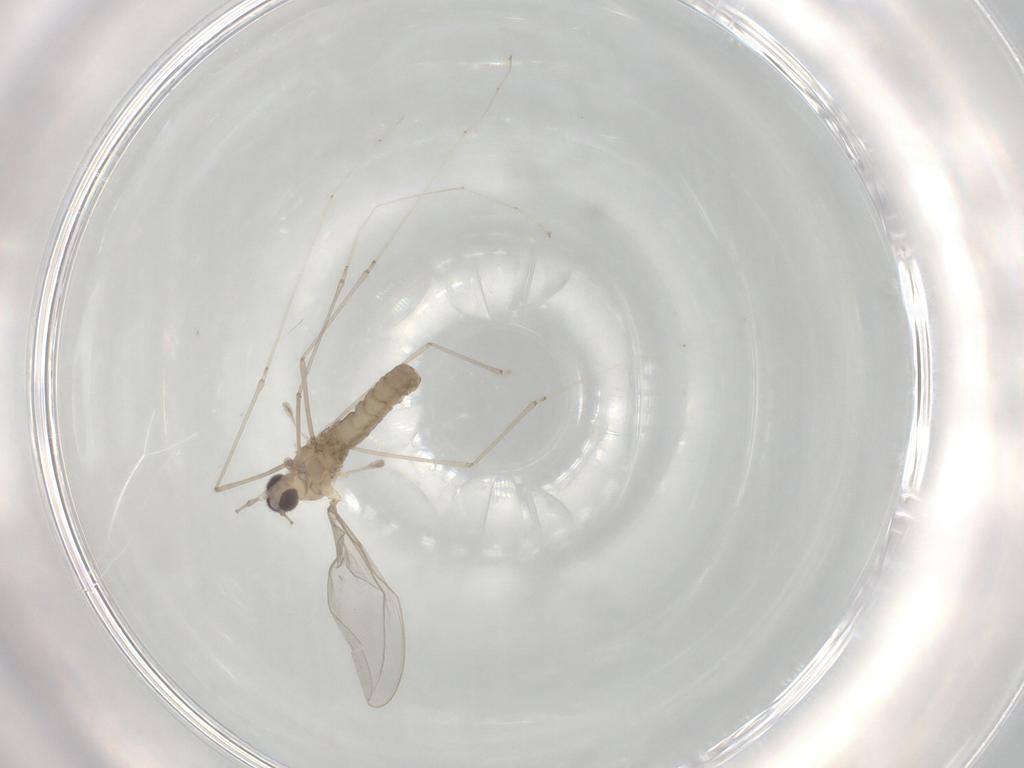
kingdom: Animalia
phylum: Arthropoda
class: Insecta
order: Diptera
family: Cecidomyiidae
